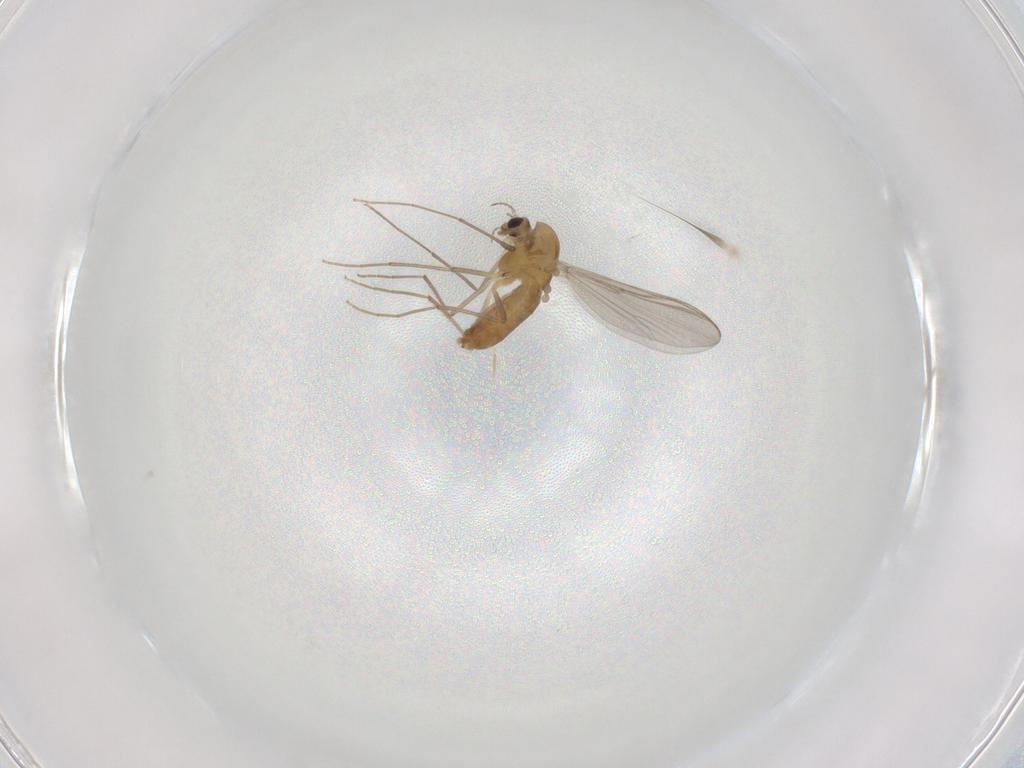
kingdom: Animalia
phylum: Arthropoda
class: Insecta
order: Diptera
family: Chironomidae
